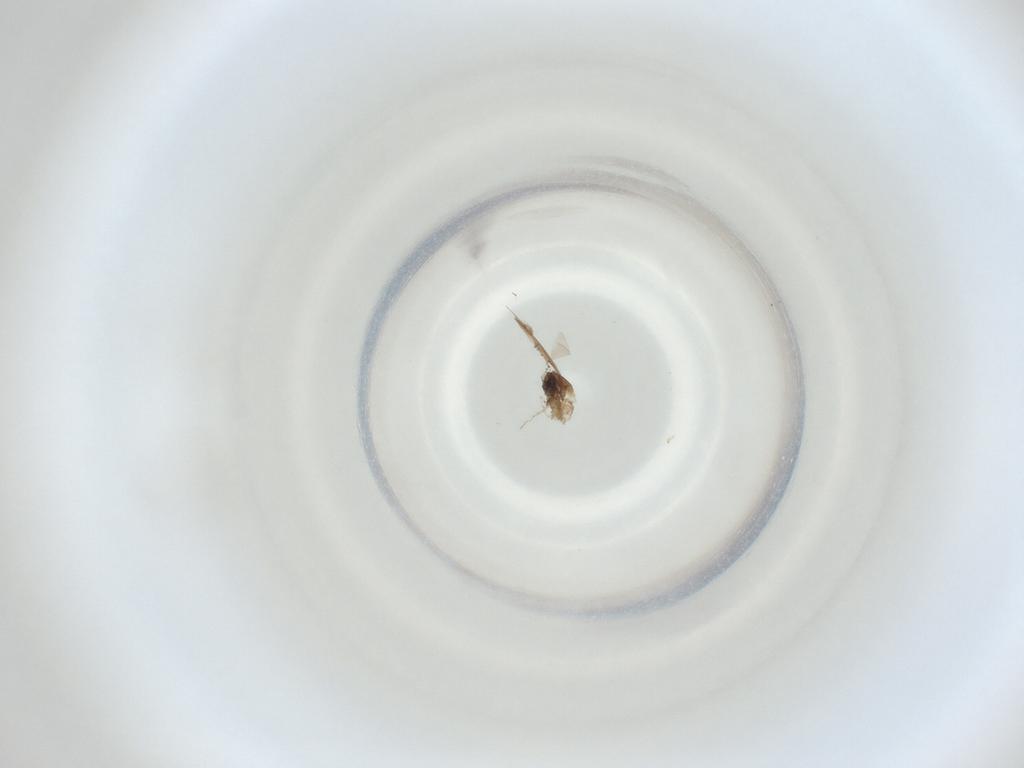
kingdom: Animalia
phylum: Arthropoda
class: Insecta
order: Diptera
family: Cecidomyiidae
